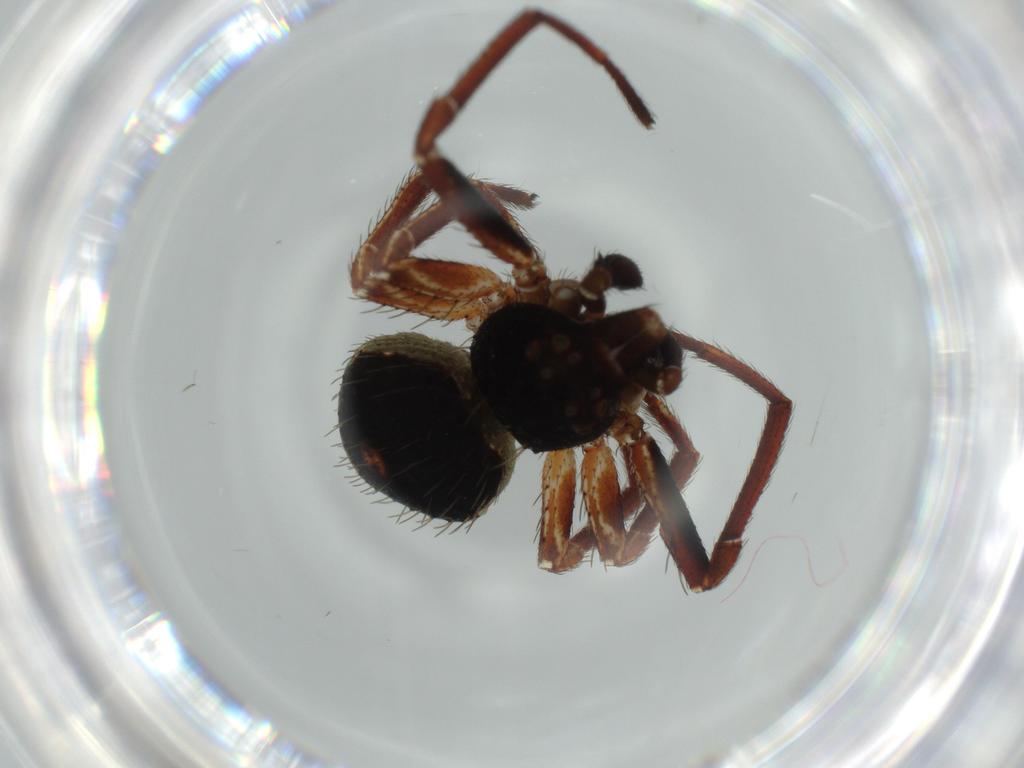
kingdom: Animalia
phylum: Arthropoda
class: Arachnida
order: Araneae
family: Thomisidae
